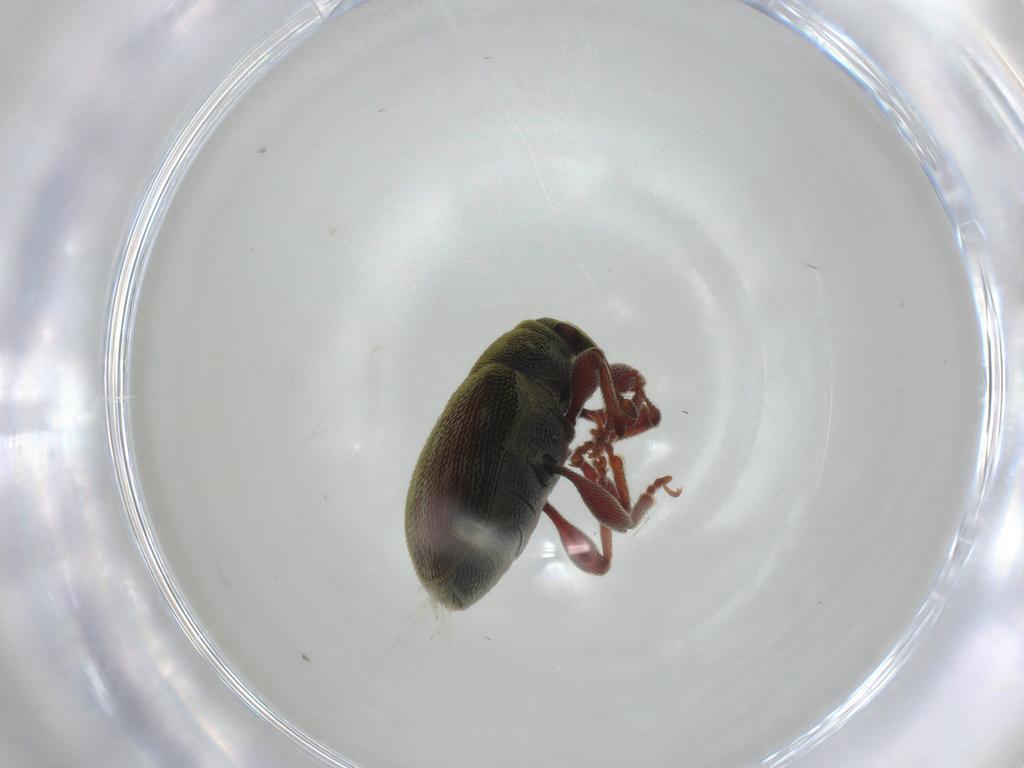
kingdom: Animalia
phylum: Arthropoda
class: Insecta
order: Coleoptera
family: Curculionidae
